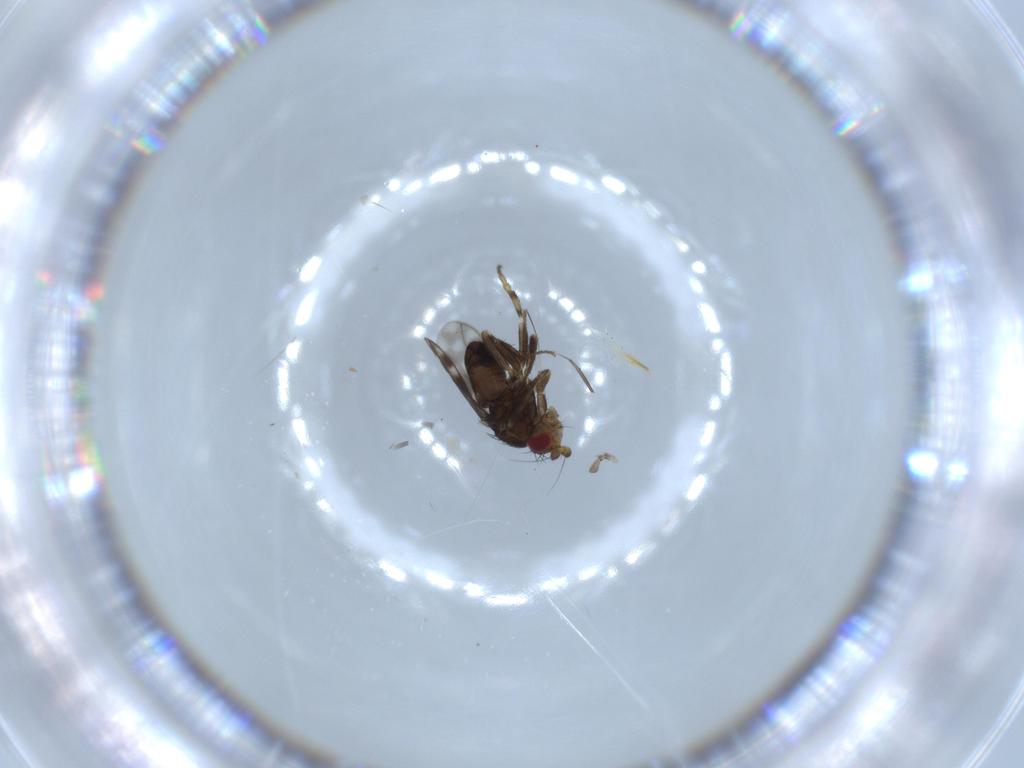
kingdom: Animalia
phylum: Arthropoda
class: Insecta
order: Diptera
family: Sphaeroceridae
